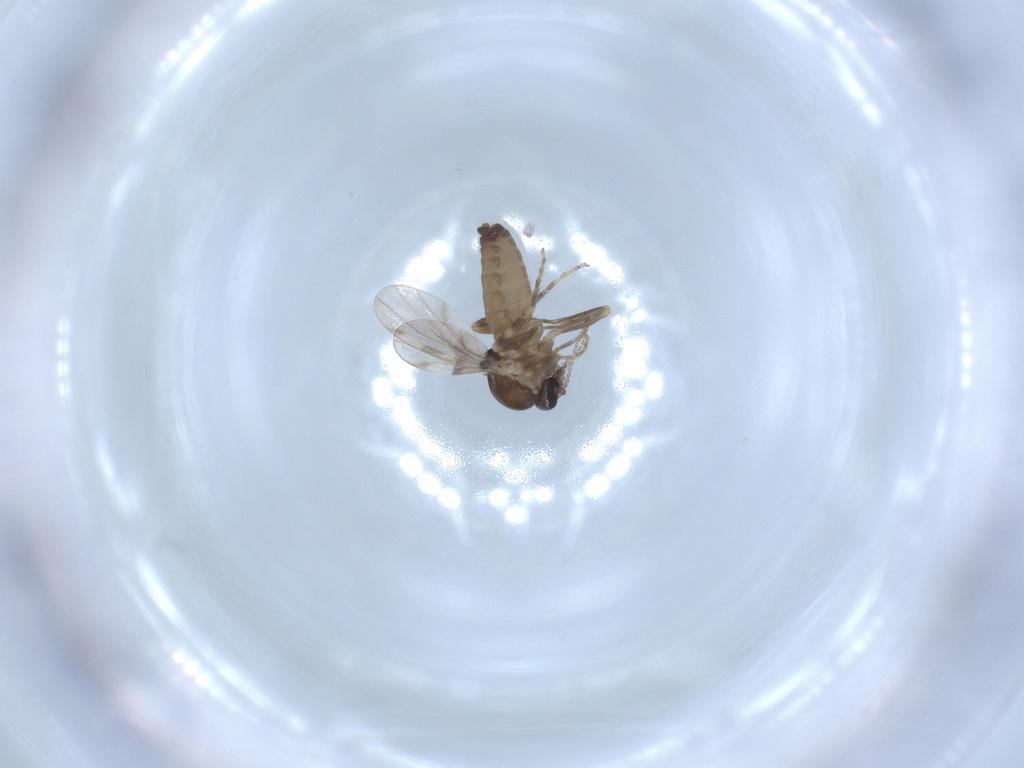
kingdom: Animalia
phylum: Arthropoda
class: Insecta
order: Diptera
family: Ceratopogonidae
